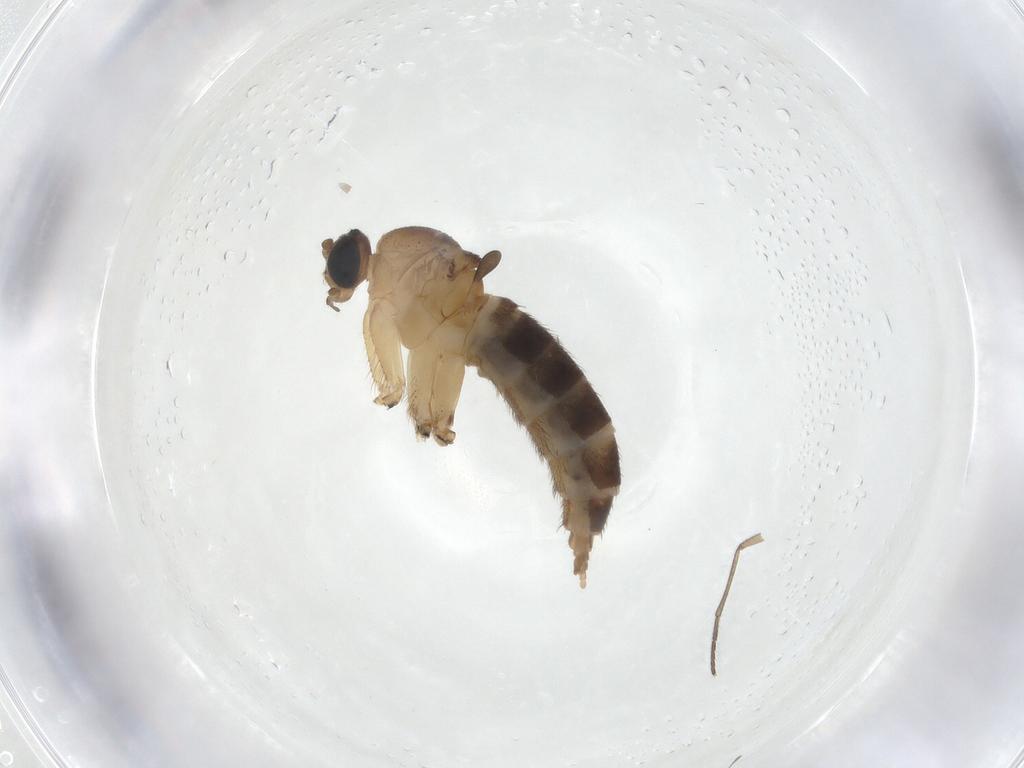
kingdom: Animalia
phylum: Arthropoda
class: Insecta
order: Diptera
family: Sciaridae
